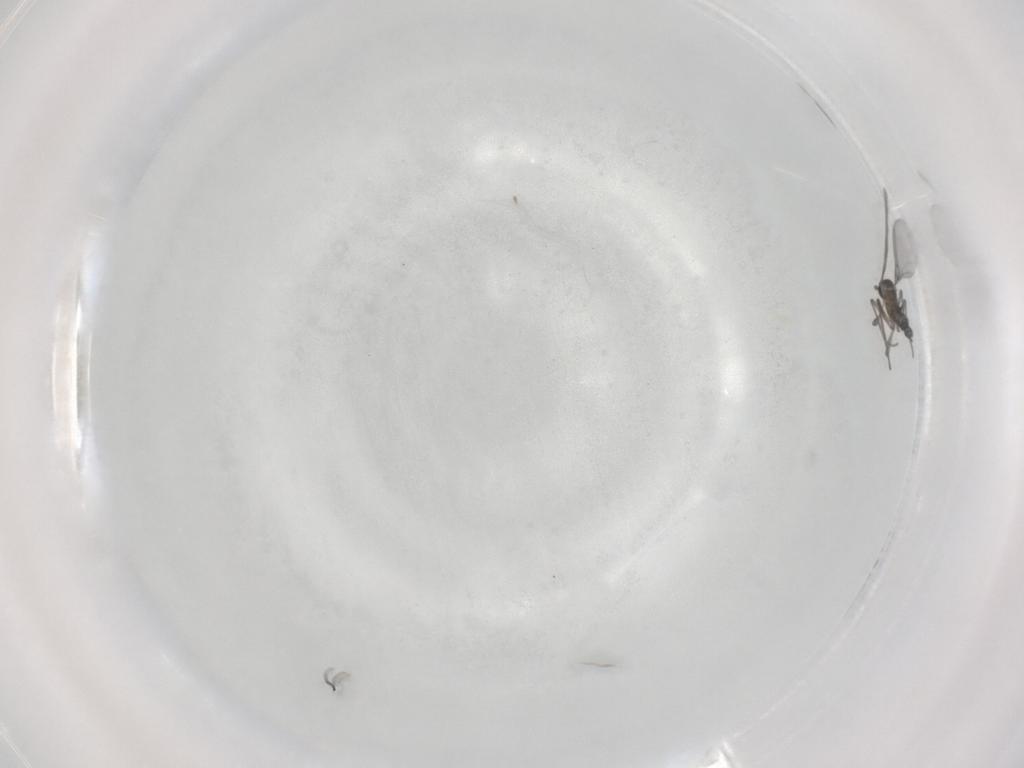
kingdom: Animalia
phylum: Arthropoda
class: Insecta
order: Diptera
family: Sciaridae
